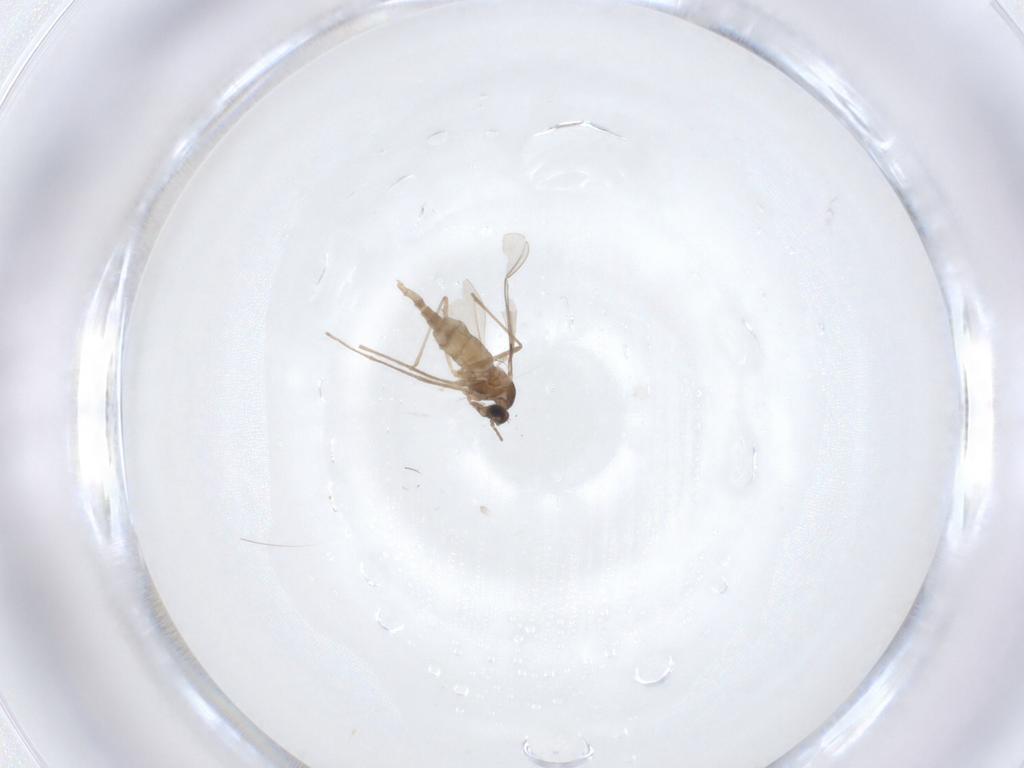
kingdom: Animalia
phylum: Arthropoda
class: Insecta
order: Diptera
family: Cecidomyiidae
